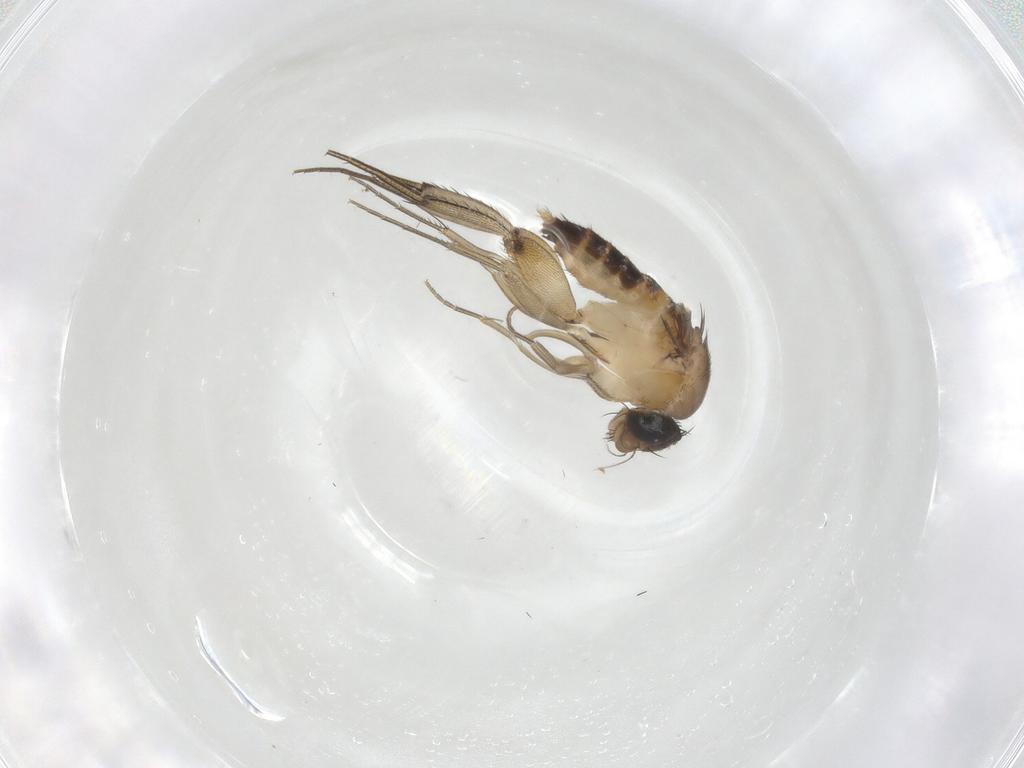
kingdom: Animalia
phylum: Arthropoda
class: Insecta
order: Diptera
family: Phoridae
